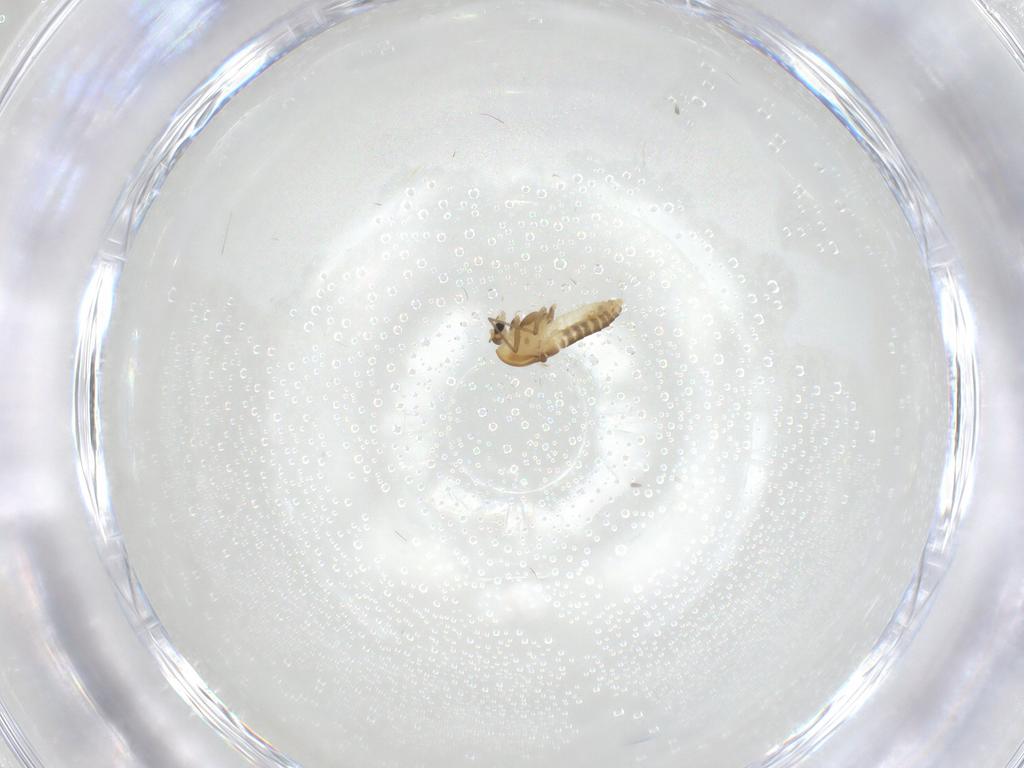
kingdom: Animalia
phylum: Arthropoda
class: Insecta
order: Diptera
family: Chironomidae
